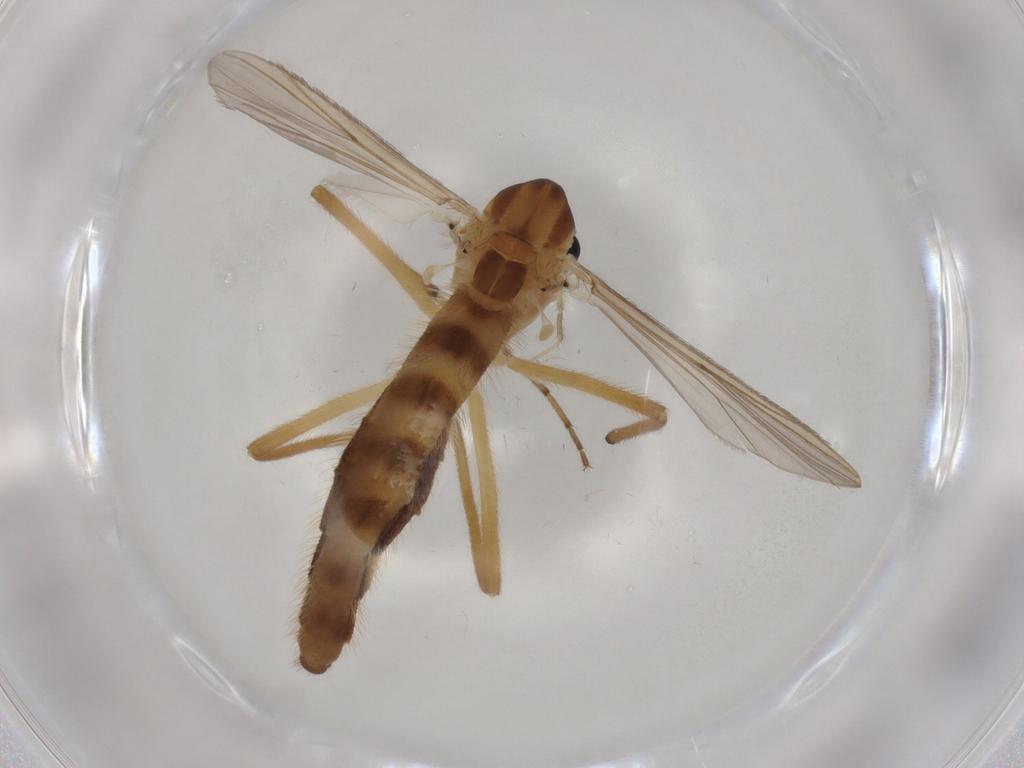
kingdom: Animalia
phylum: Arthropoda
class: Insecta
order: Diptera
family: Chironomidae
